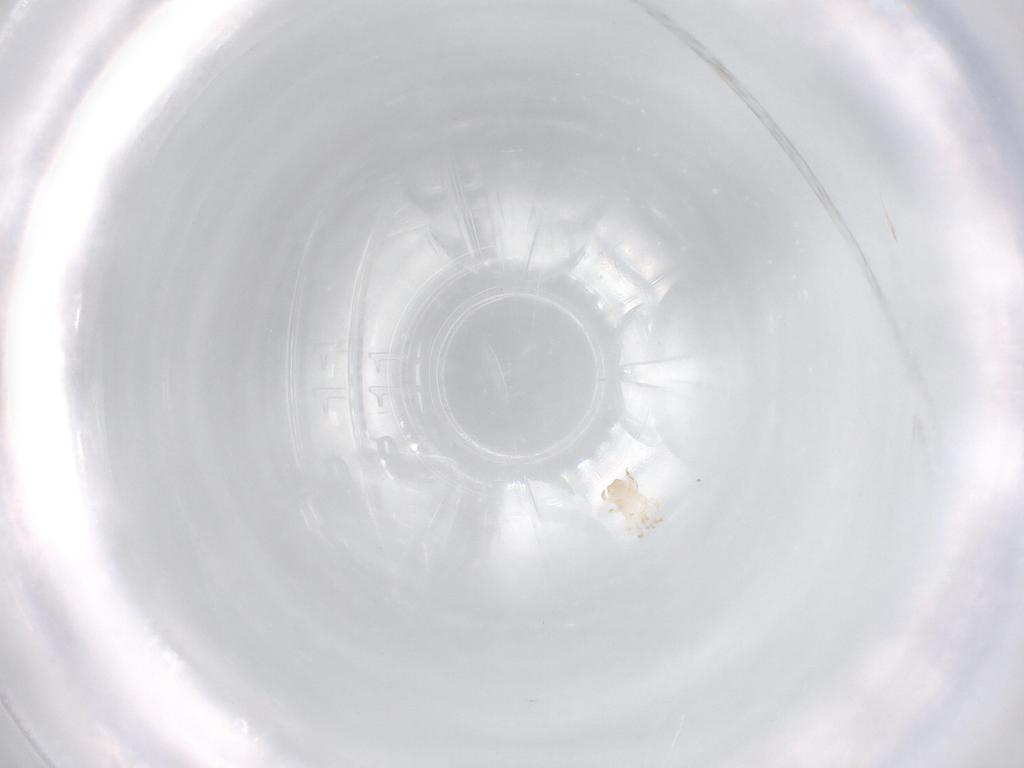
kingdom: Animalia
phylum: Arthropoda
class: Arachnida
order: Mesostigmata
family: Digamasellidae
